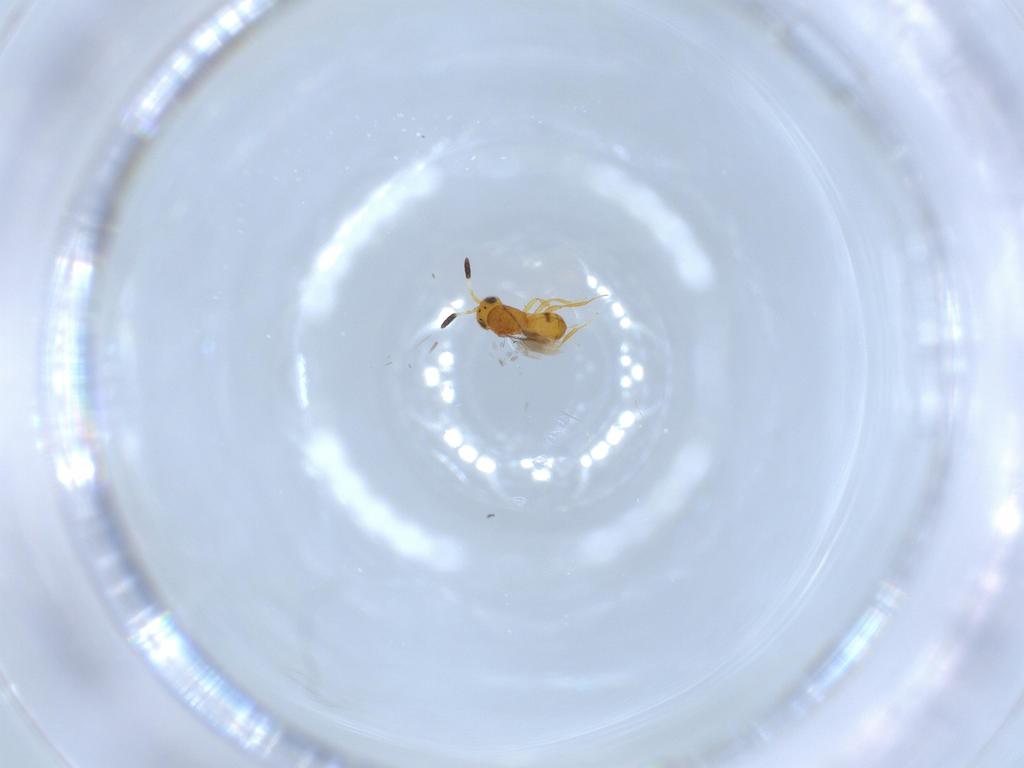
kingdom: Animalia
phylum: Arthropoda
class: Insecta
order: Hymenoptera
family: Scelionidae
